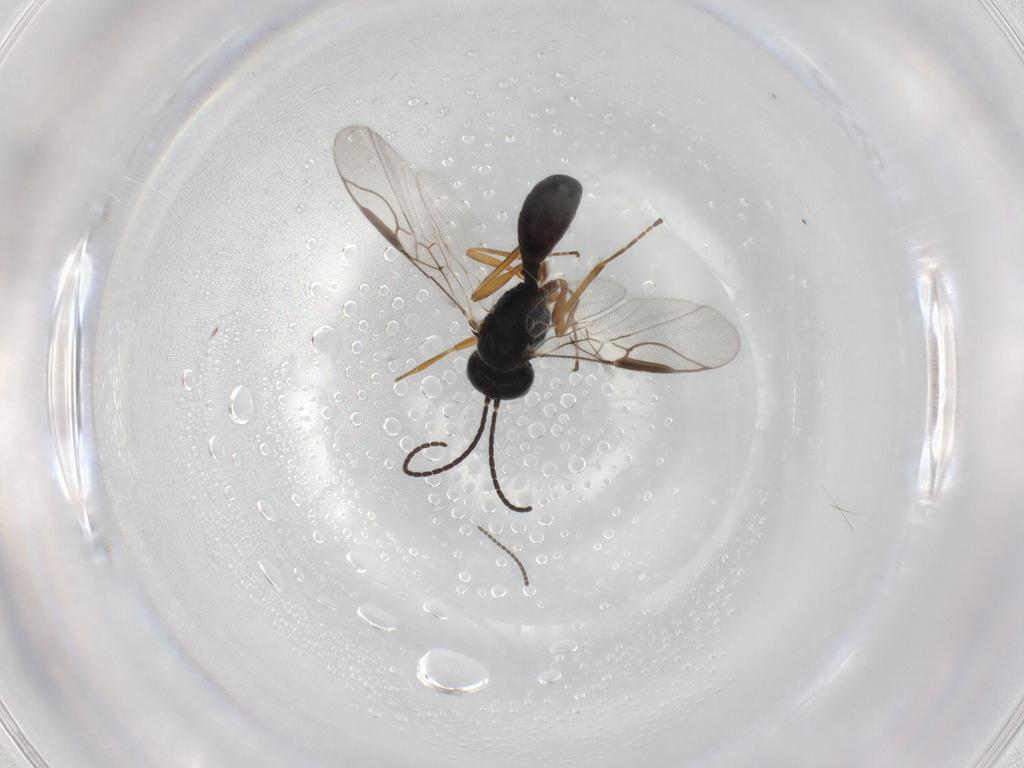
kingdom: Animalia
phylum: Arthropoda
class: Insecta
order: Hymenoptera
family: Braconidae
